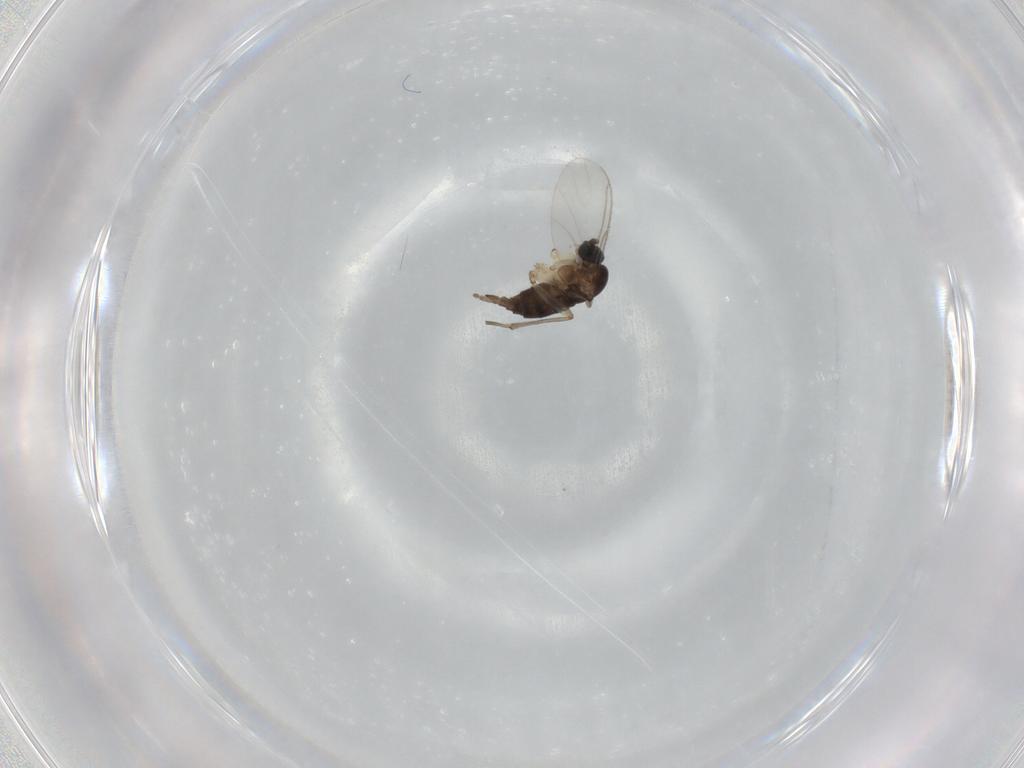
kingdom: Animalia
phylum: Arthropoda
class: Insecta
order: Diptera
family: Sciaridae
